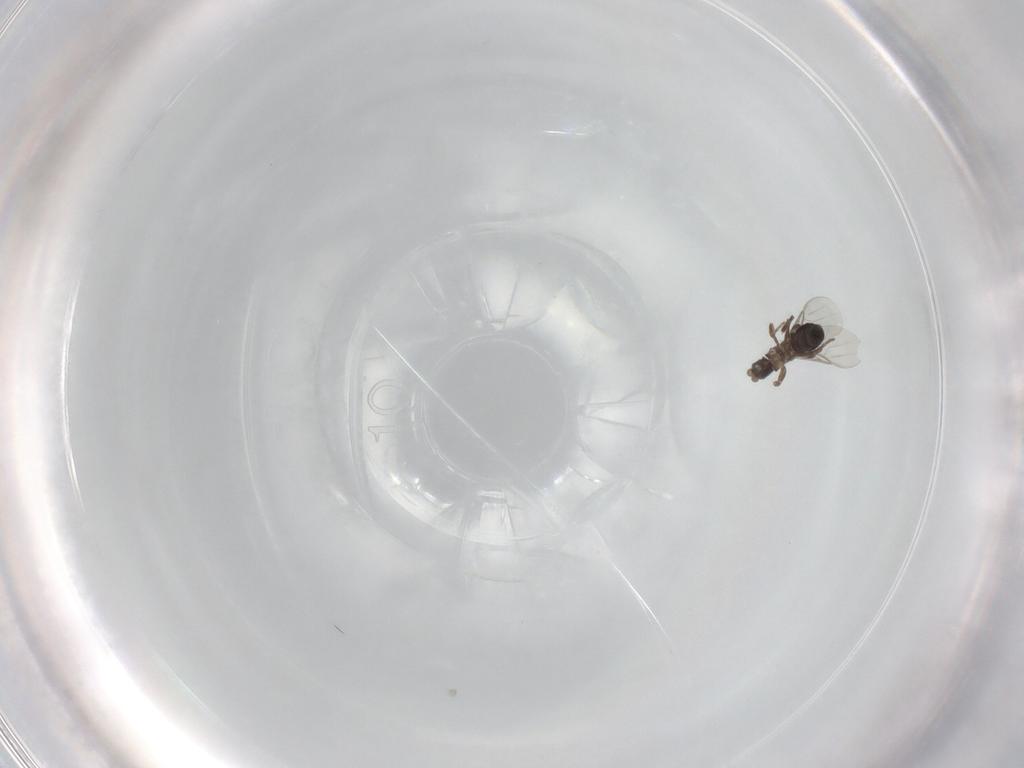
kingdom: Animalia
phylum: Arthropoda
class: Insecta
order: Diptera
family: Phoridae
